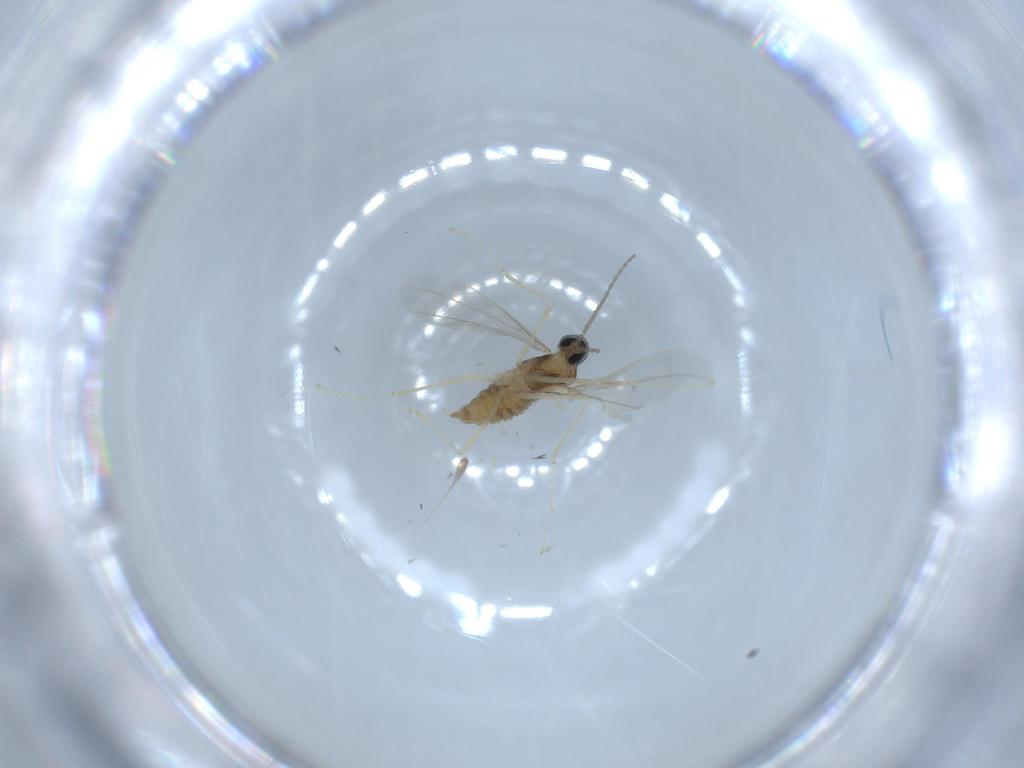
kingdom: Animalia
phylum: Arthropoda
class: Insecta
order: Diptera
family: Cecidomyiidae
